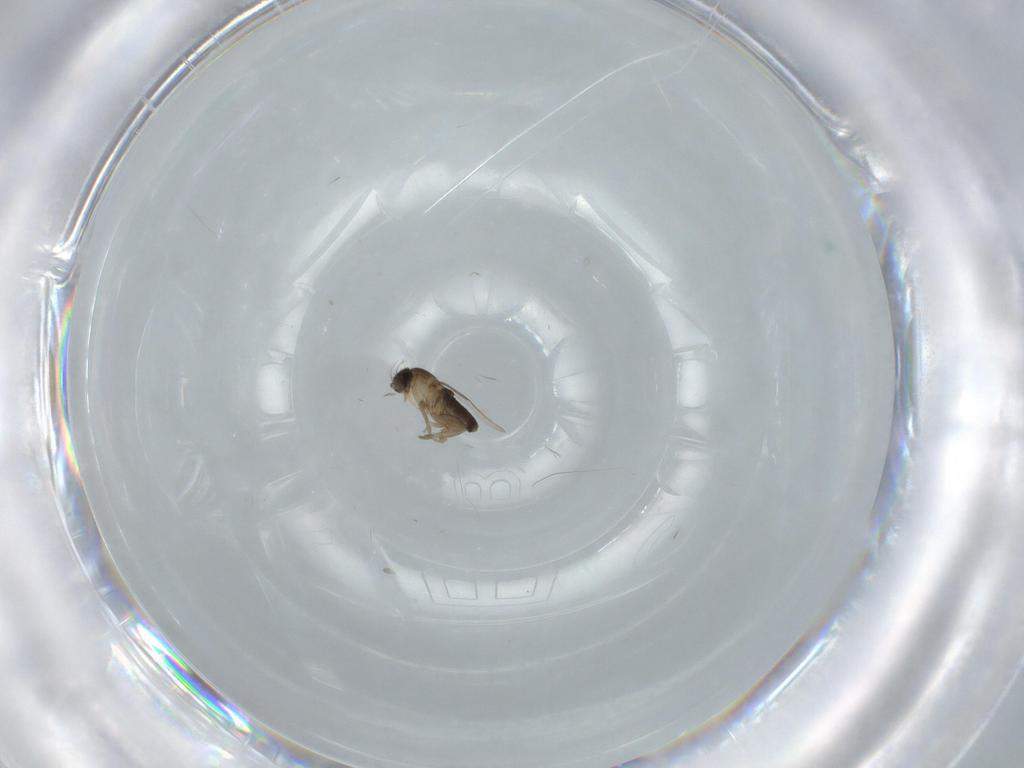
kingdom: Animalia
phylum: Arthropoda
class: Insecta
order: Diptera
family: Phoridae
